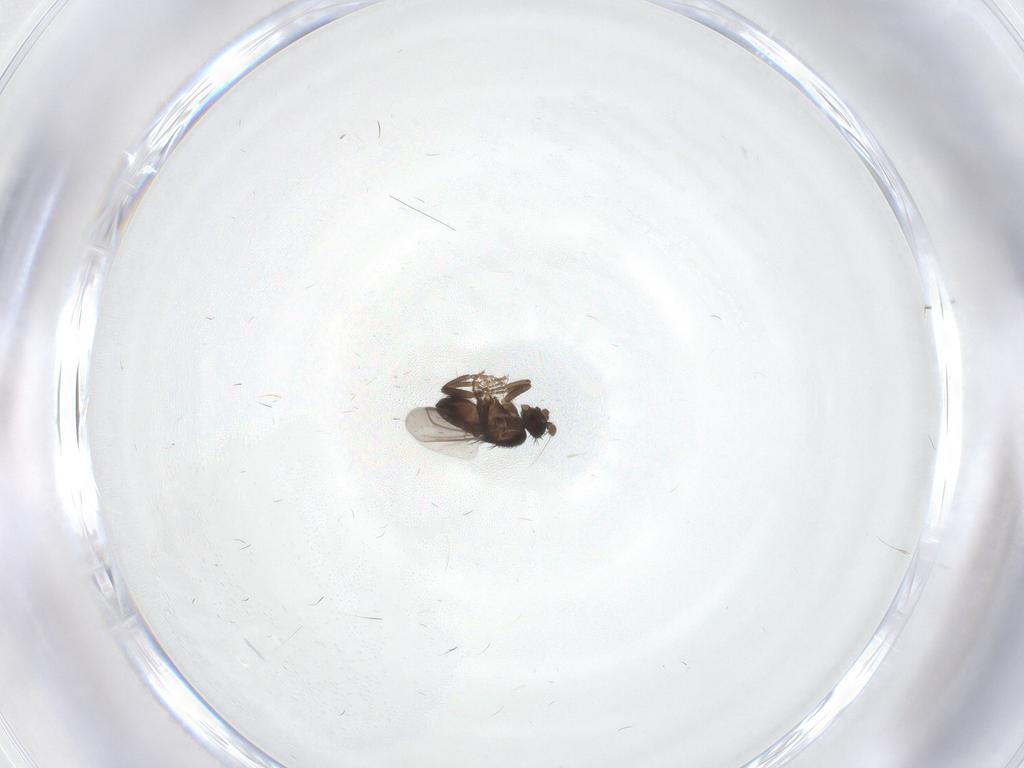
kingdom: Animalia
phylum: Arthropoda
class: Insecta
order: Diptera
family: Dolichopodidae
